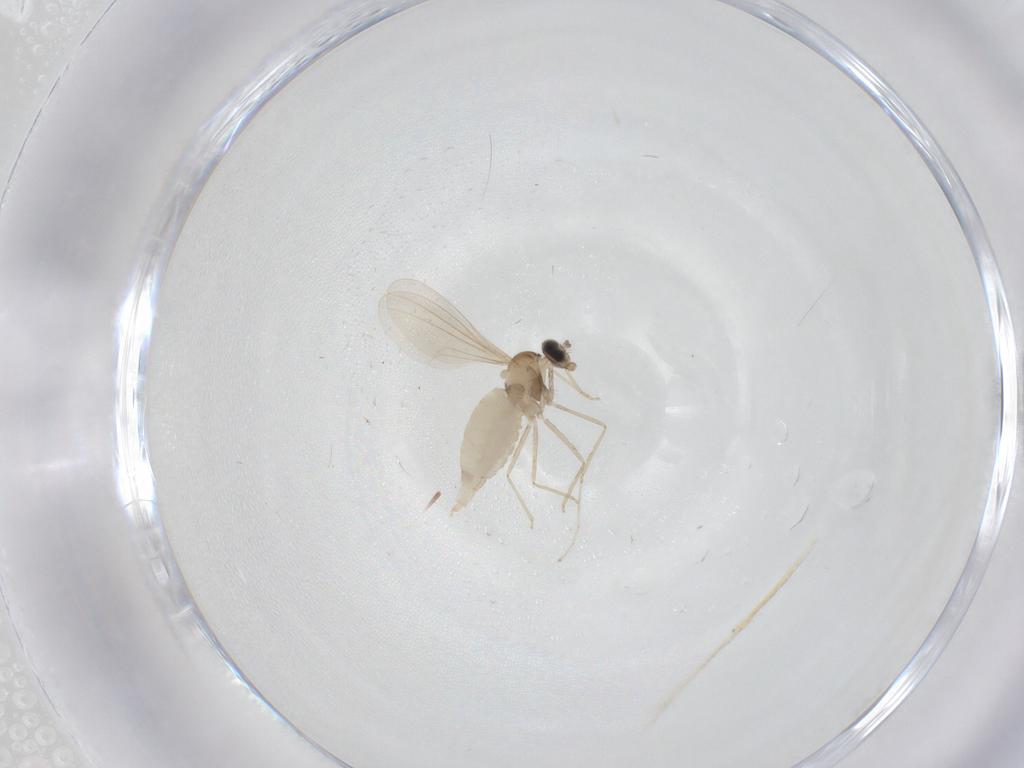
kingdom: Animalia
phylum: Arthropoda
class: Insecta
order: Diptera
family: Cecidomyiidae
